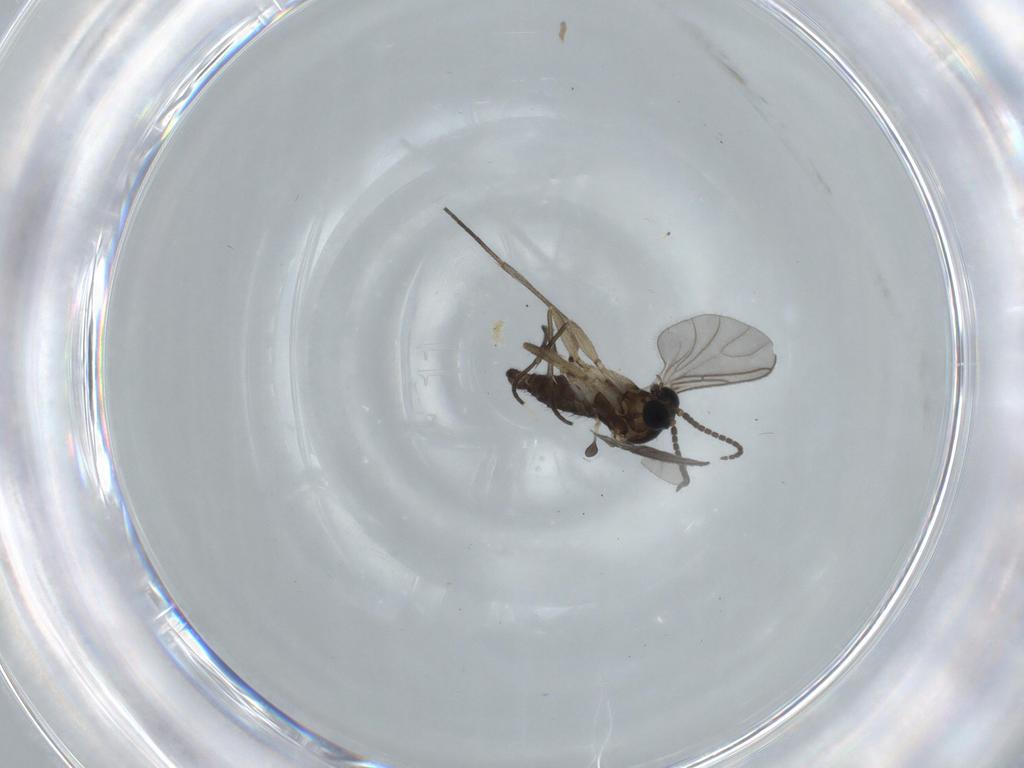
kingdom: Animalia
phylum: Arthropoda
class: Insecta
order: Diptera
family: Sciaridae
